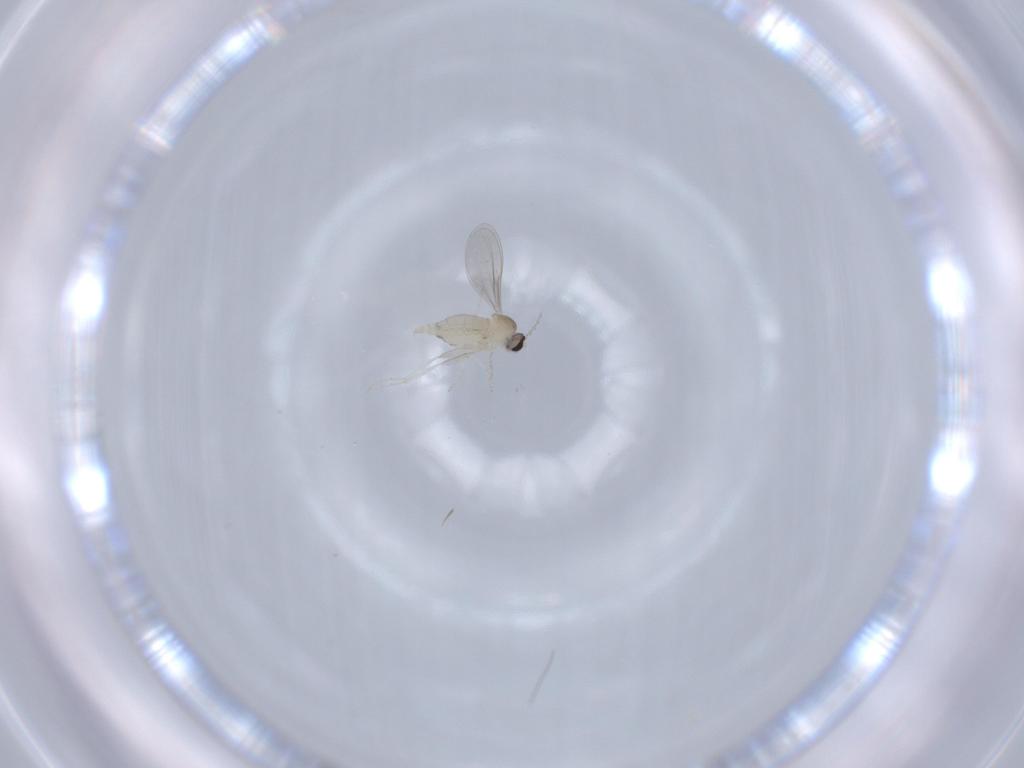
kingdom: Animalia
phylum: Arthropoda
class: Insecta
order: Diptera
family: Cecidomyiidae
